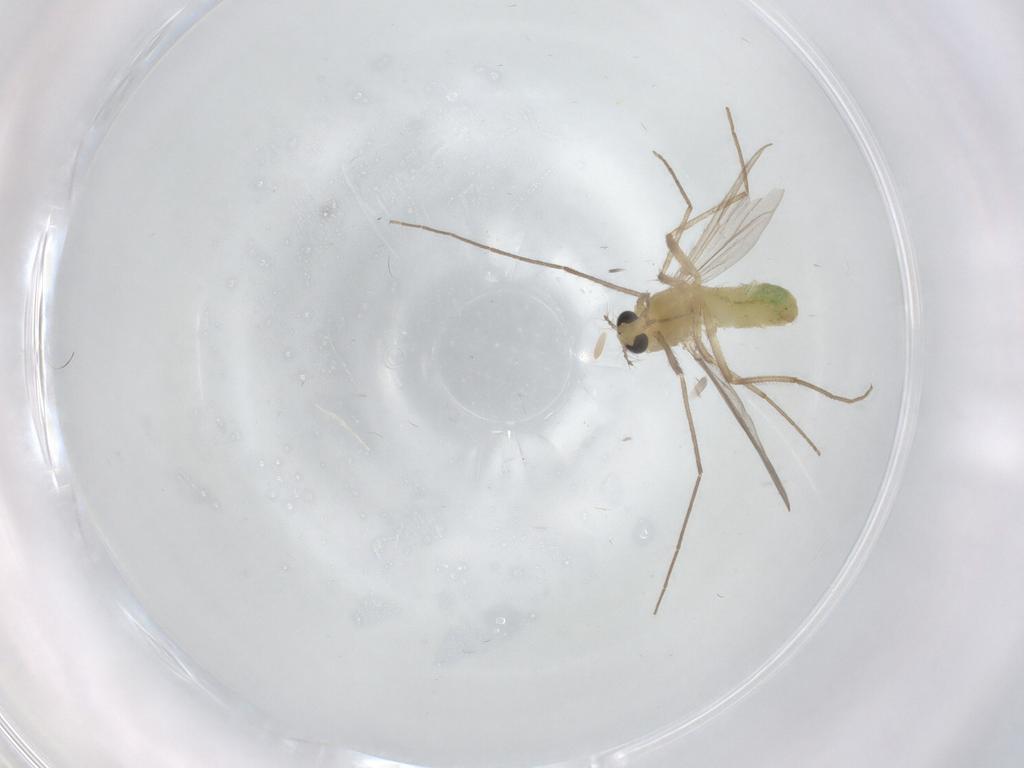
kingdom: Animalia
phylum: Arthropoda
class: Insecta
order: Diptera
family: Chironomidae
